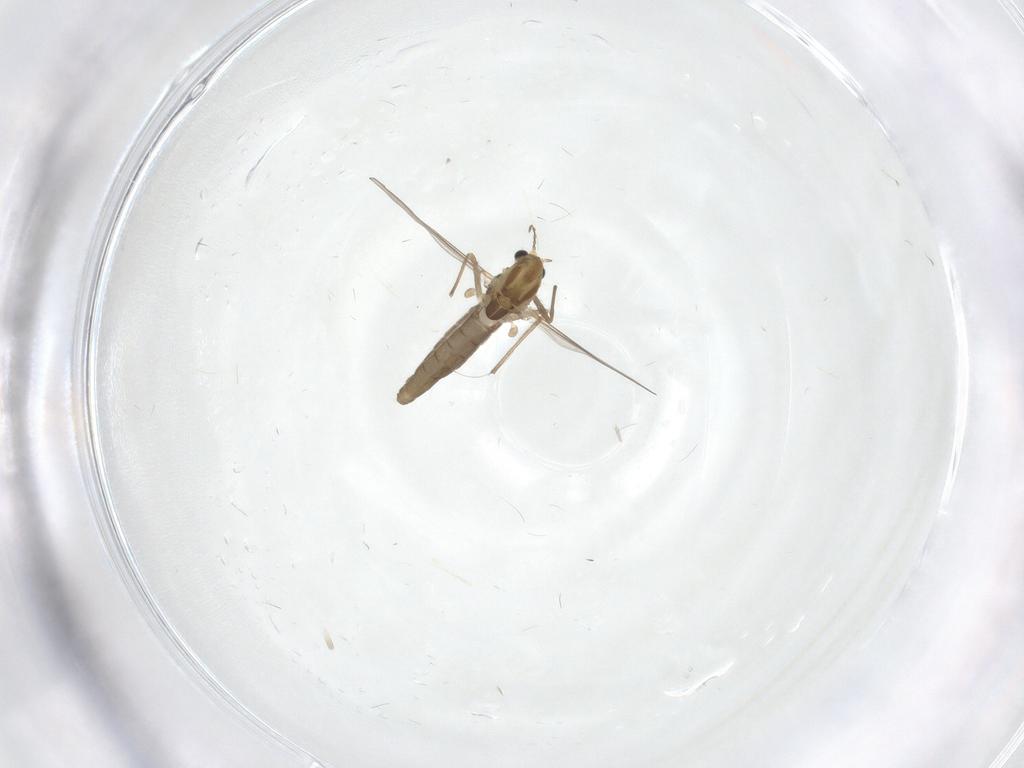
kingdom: Animalia
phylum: Arthropoda
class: Insecta
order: Diptera
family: Chironomidae
